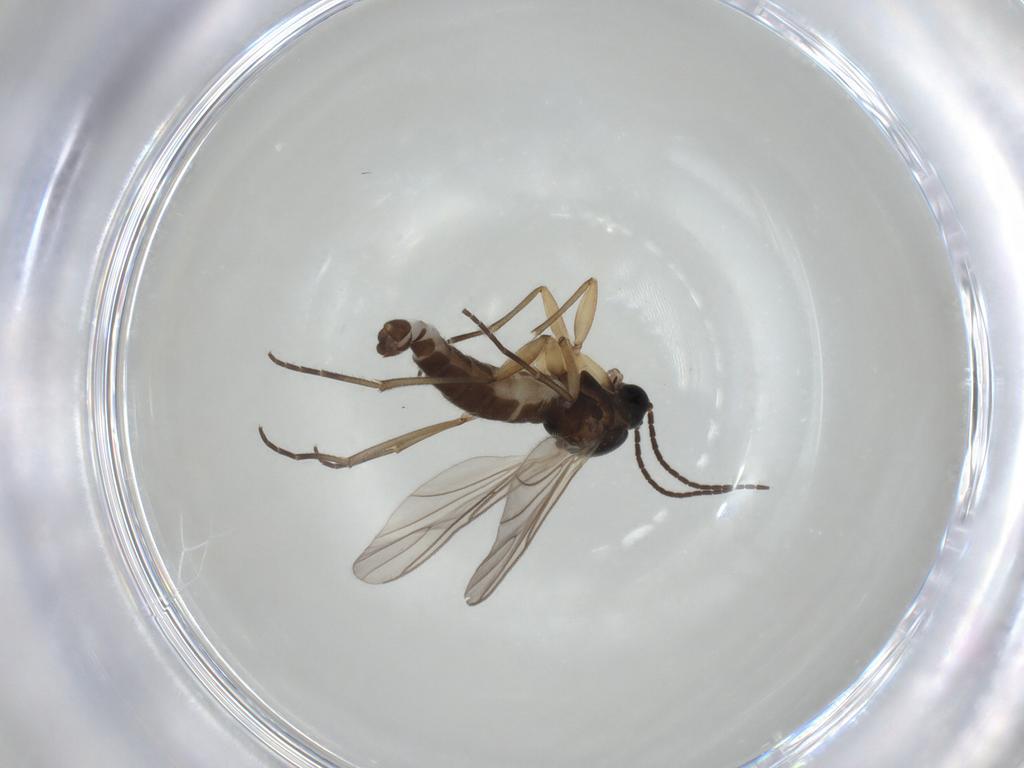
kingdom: Animalia
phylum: Arthropoda
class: Insecta
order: Diptera
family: Sciaridae
